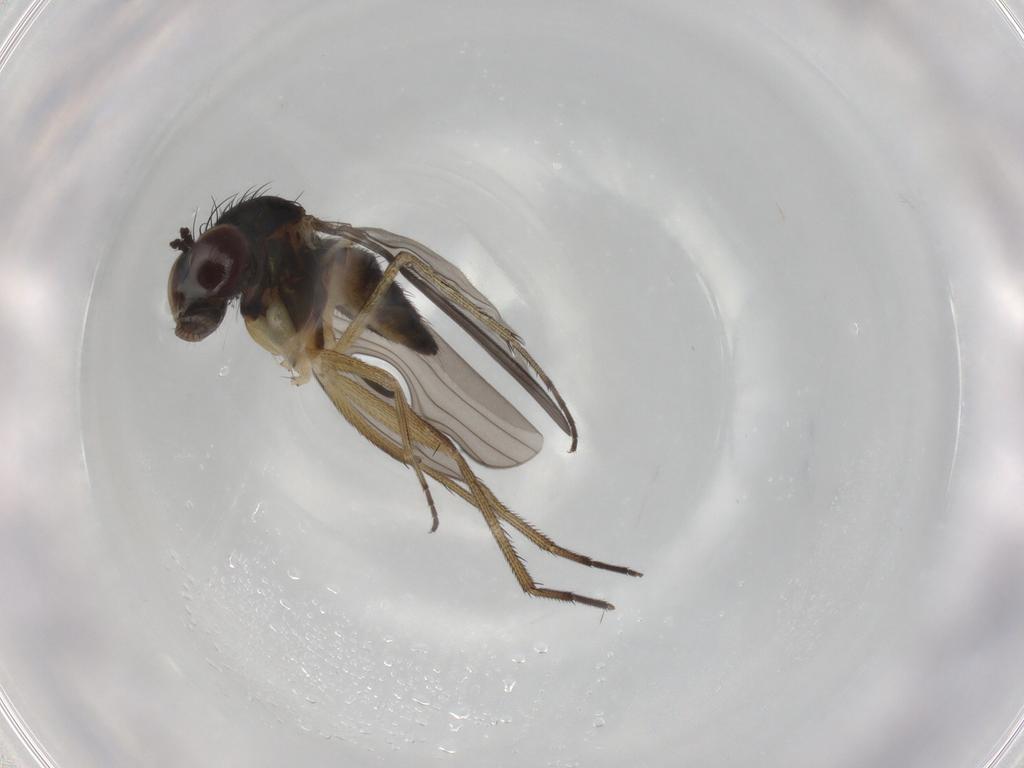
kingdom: Animalia
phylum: Arthropoda
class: Insecta
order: Diptera
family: Dolichopodidae
